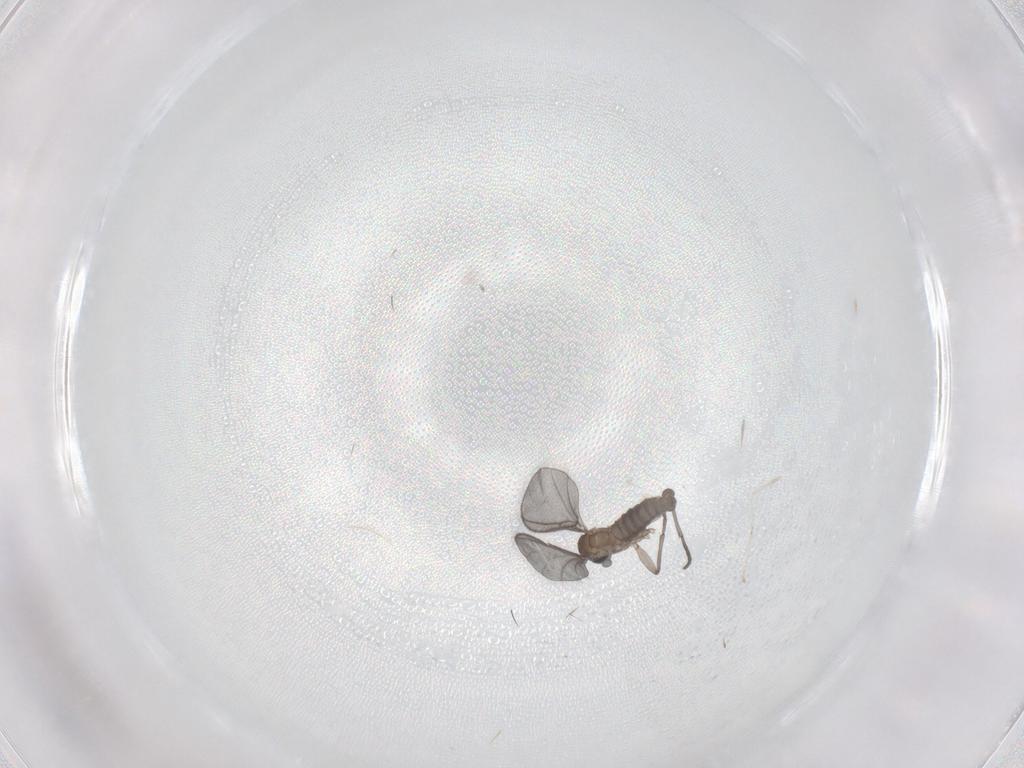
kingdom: Animalia
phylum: Arthropoda
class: Insecta
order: Diptera
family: Sciaridae
